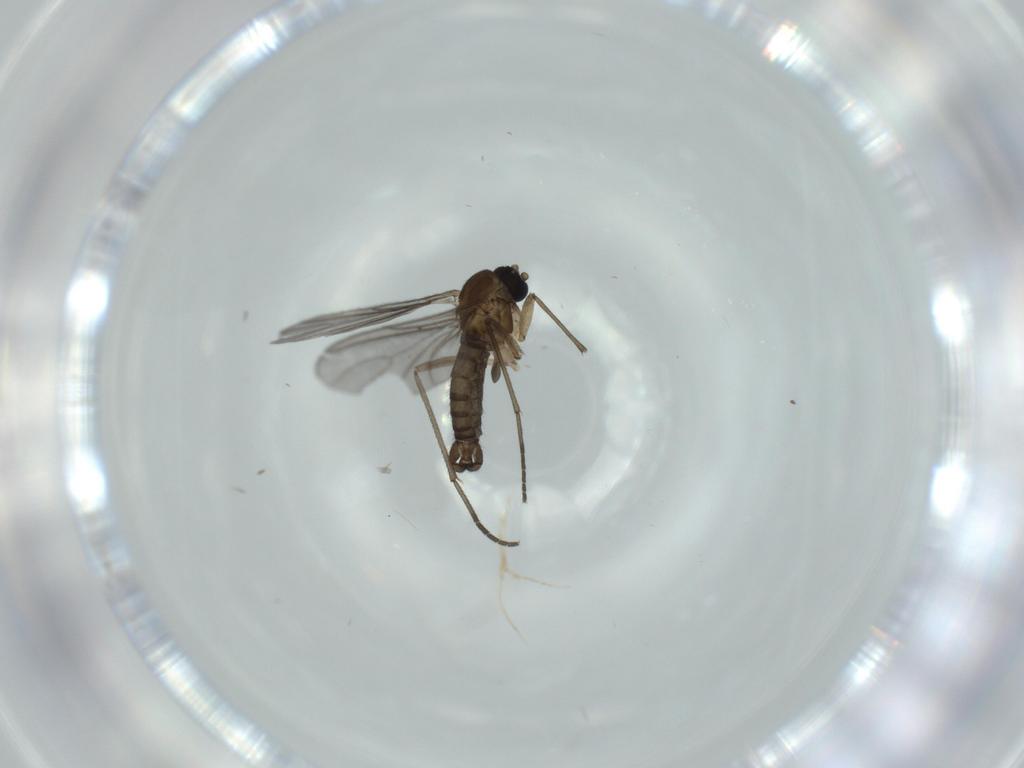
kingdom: Animalia
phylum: Arthropoda
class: Insecta
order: Diptera
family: Sciaridae
